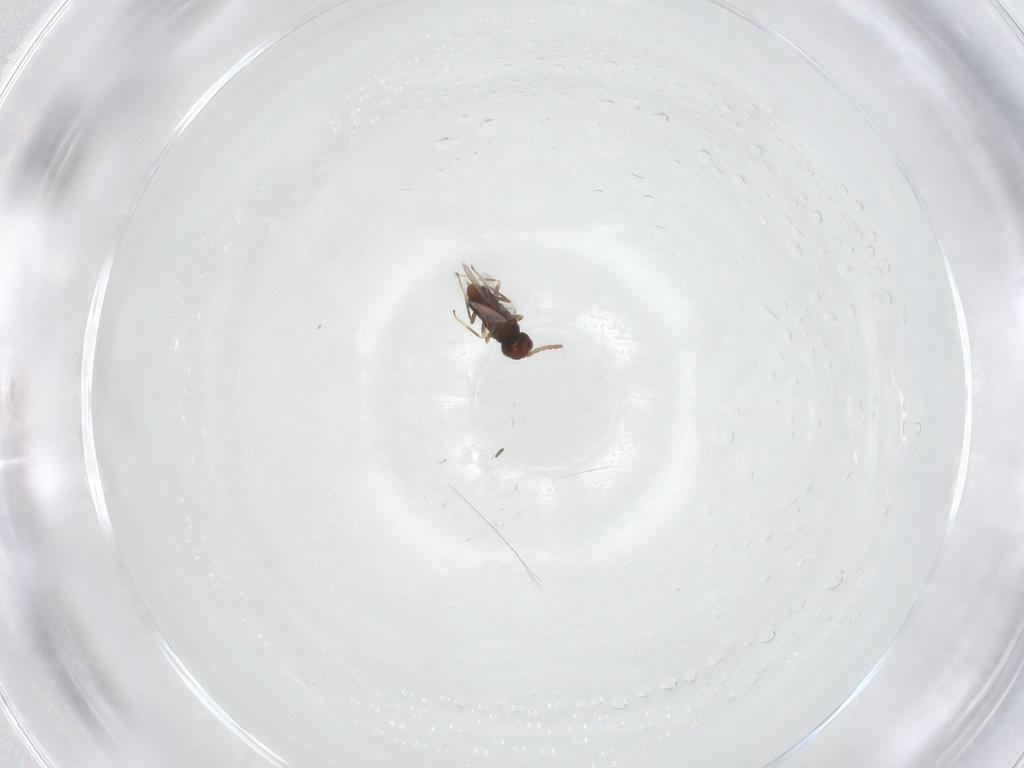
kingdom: Animalia
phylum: Arthropoda
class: Insecta
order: Hymenoptera
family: Aphelinidae
